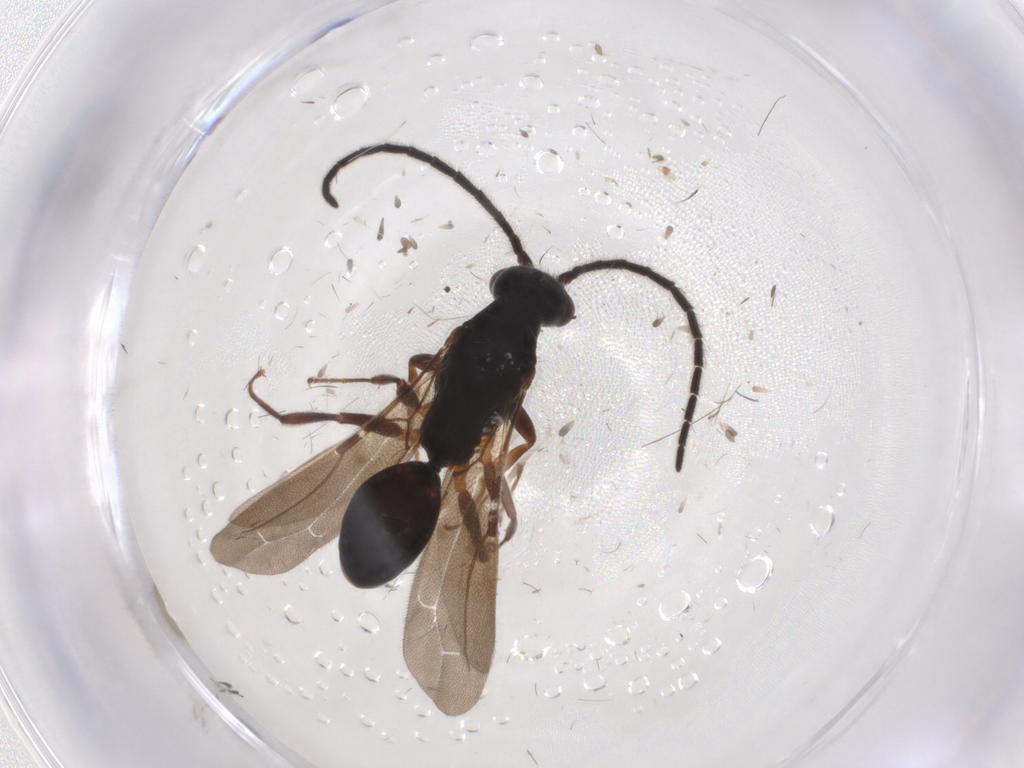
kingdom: Animalia
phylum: Arthropoda
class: Insecta
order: Hymenoptera
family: Bethylidae
